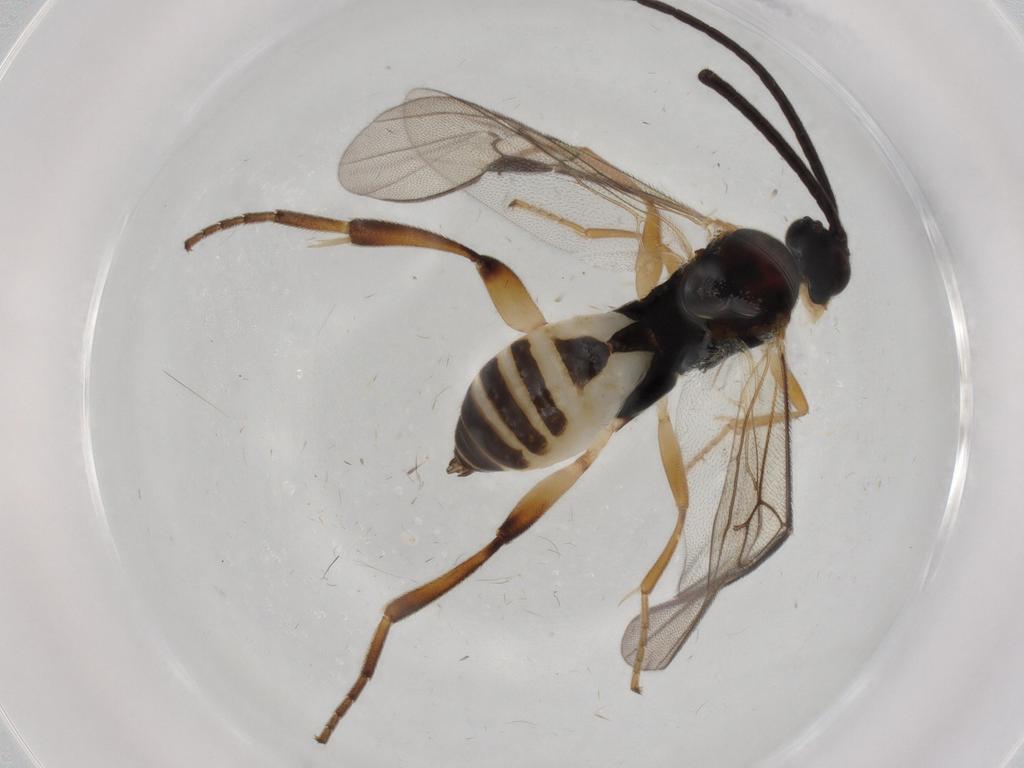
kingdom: Animalia
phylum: Arthropoda
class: Insecta
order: Hymenoptera
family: Braconidae
